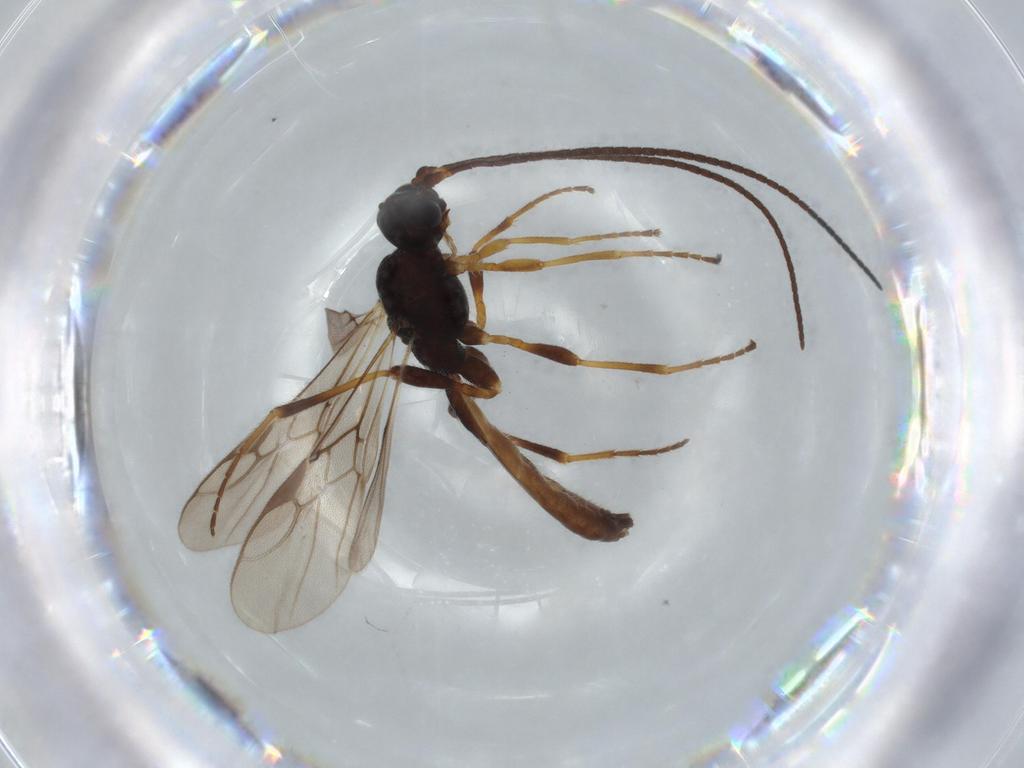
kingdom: Animalia
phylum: Arthropoda
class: Insecta
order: Hymenoptera
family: Braconidae
